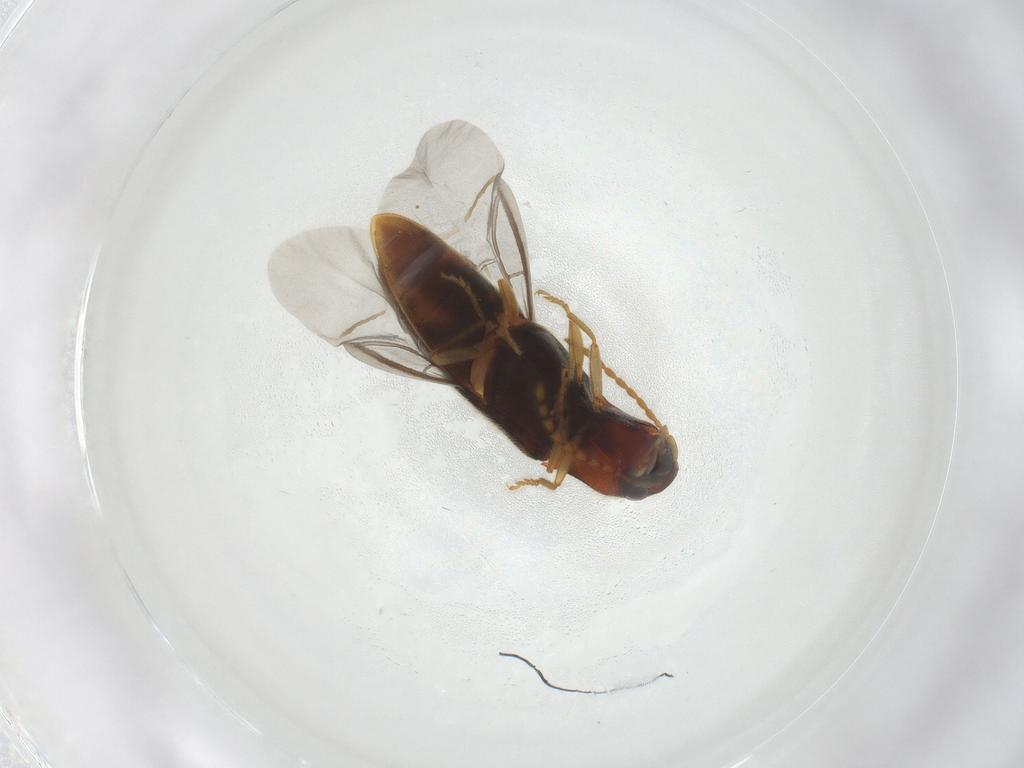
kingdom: Animalia
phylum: Arthropoda
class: Insecta
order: Coleoptera
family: Elateridae
